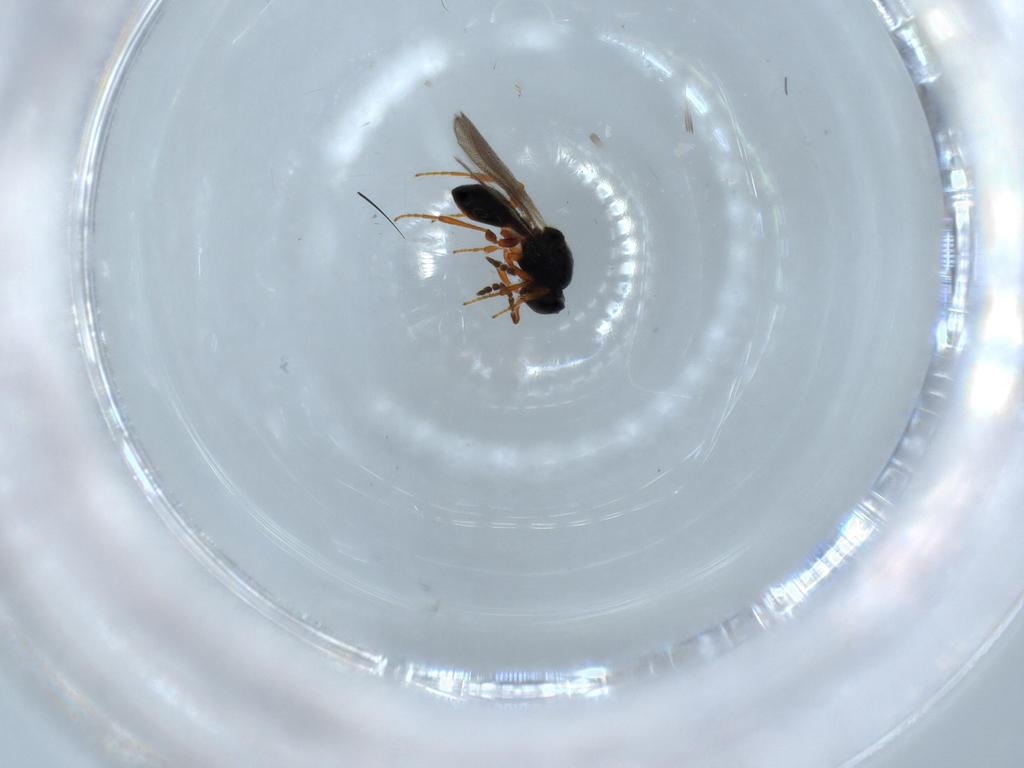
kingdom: Animalia
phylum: Arthropoda
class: Insecta
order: Hymenoptera
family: Platygastridae
